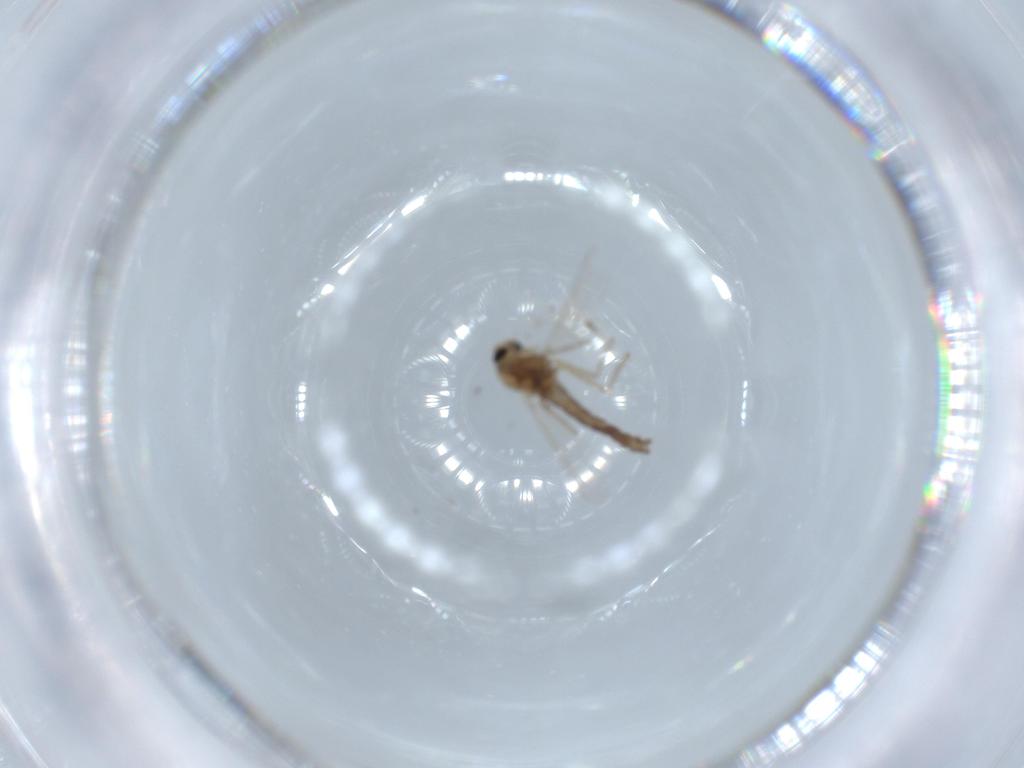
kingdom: Animalia
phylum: Arthropoda
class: Insecta
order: Diptera
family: Chironomidae
